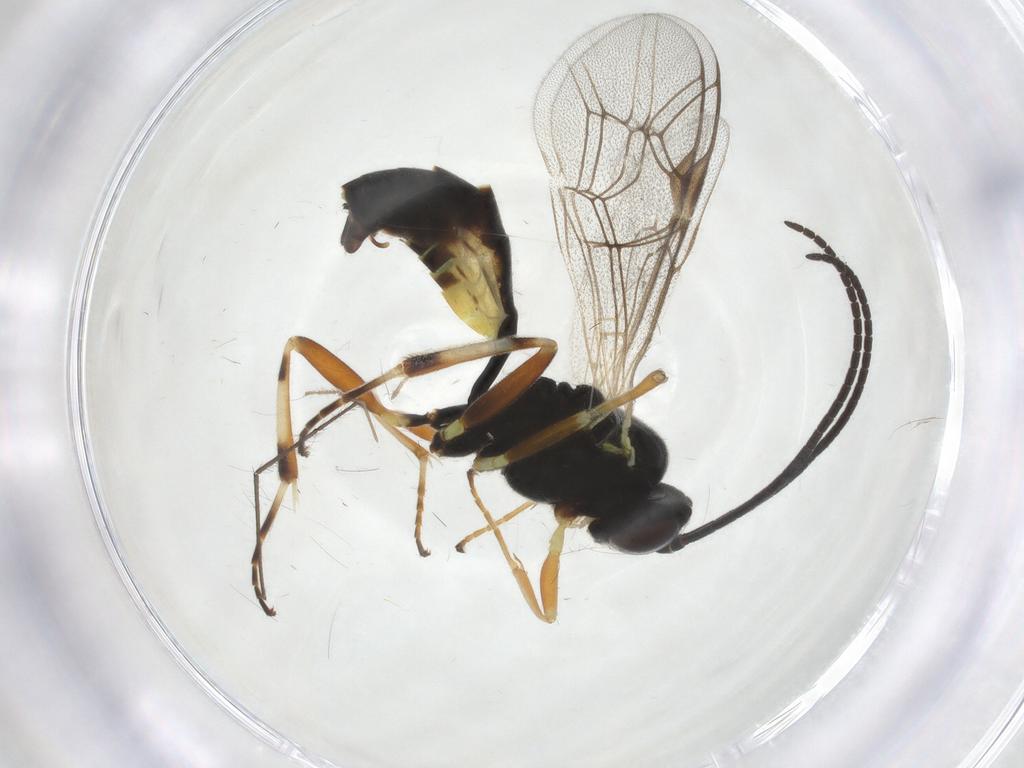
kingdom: Animalia
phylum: Arthropoda
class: Insecta
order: Hymenoptera
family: Ichneumonidae
